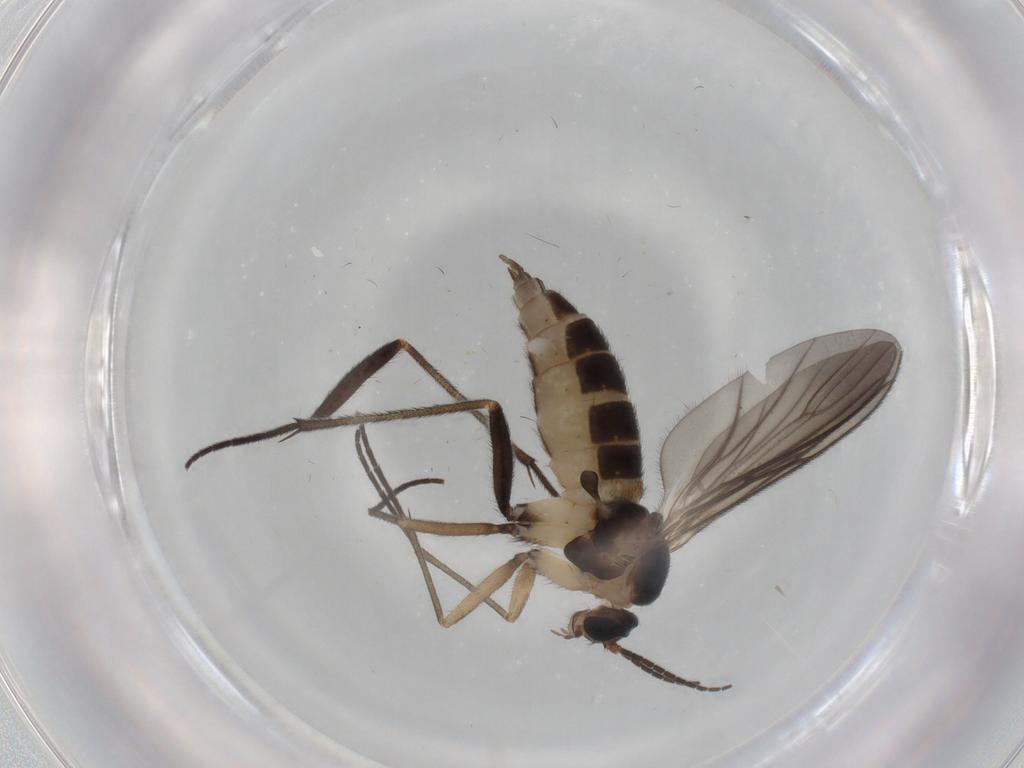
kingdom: Animalia
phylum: Arthropoda
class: Insecta
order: Diptera
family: Sciaridae
